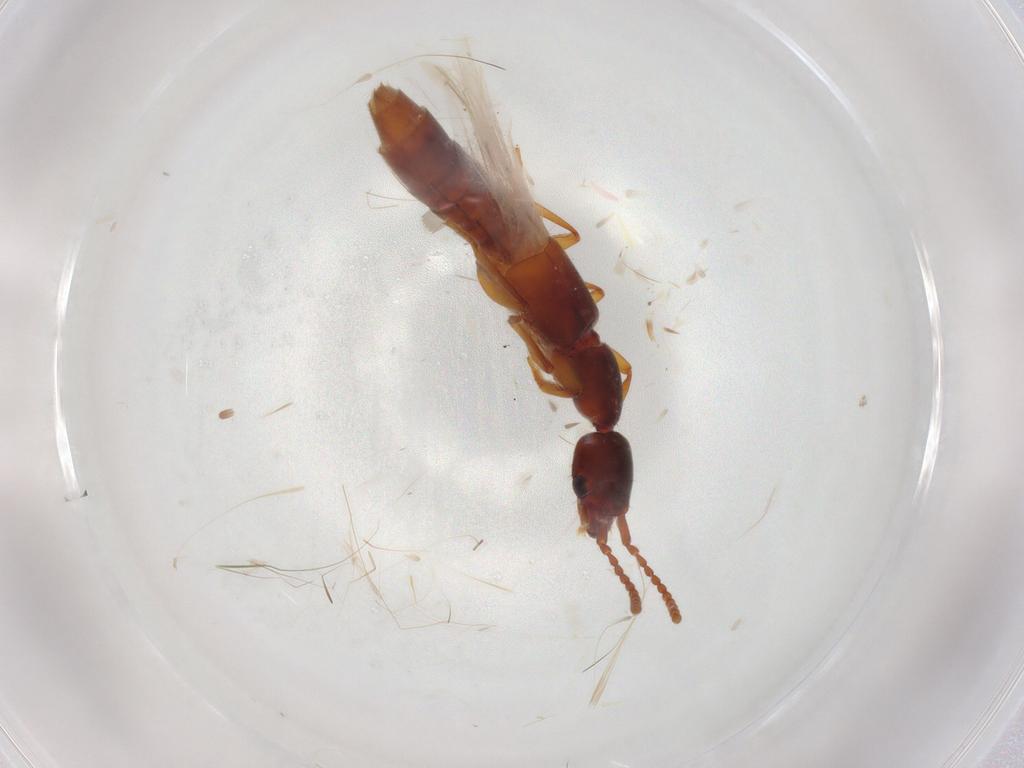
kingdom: Animalia
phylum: Arthropoda
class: Insecta
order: Coleoptera
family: Staphylinidae
